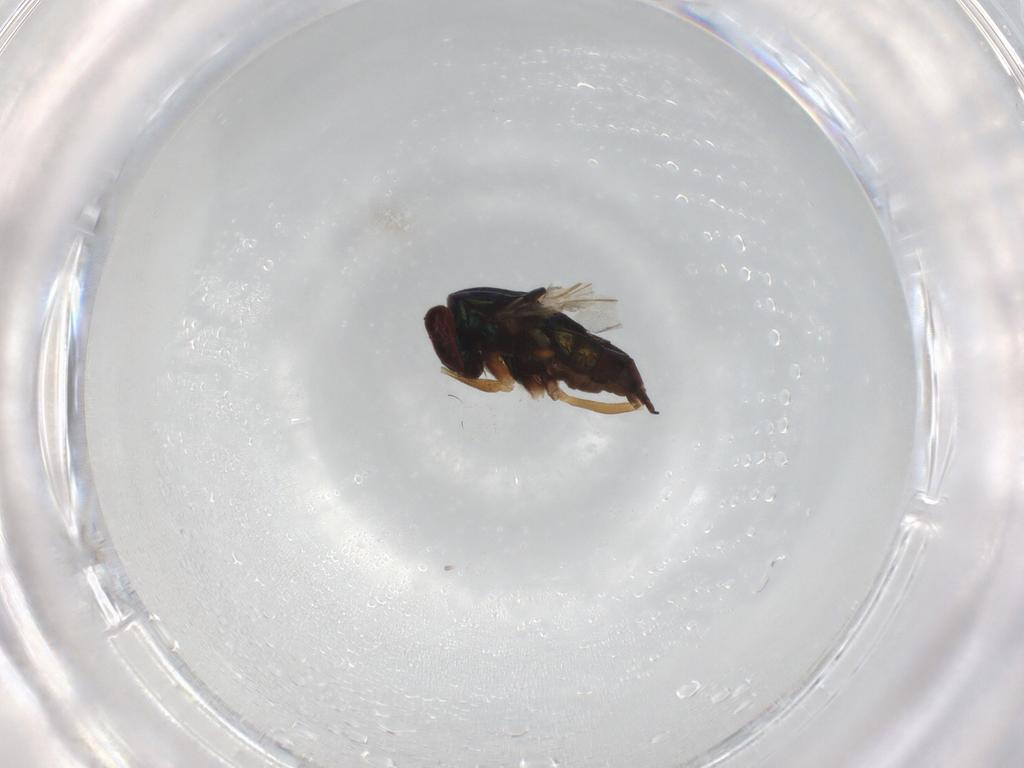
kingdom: Animalia
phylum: Arthropoda
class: Insecta
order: Diptera
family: Dolichopodidae
